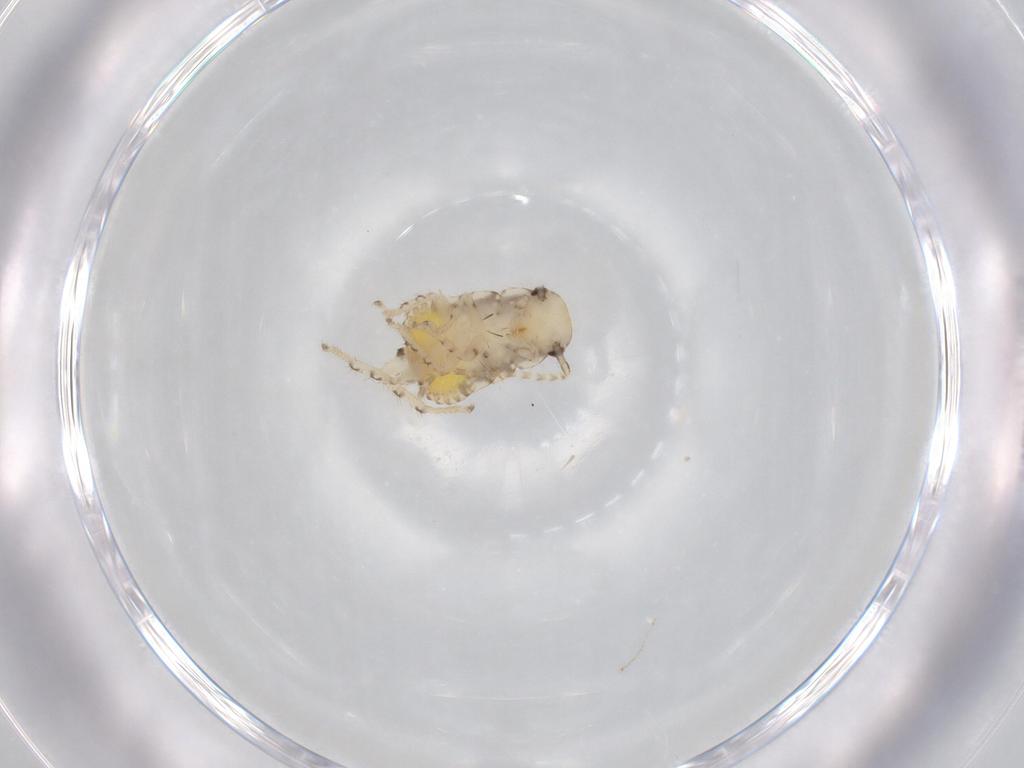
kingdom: Animalia
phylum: Arthropoda
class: Insecta
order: Blattodea
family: Ectobiidae
